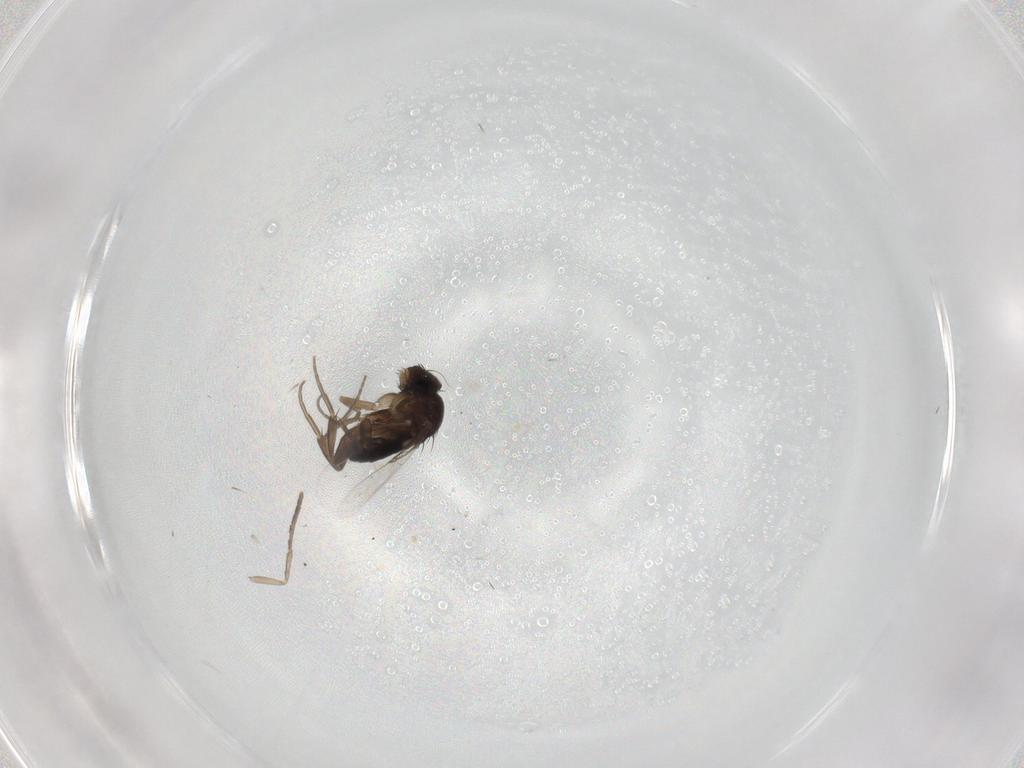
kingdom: Animalia
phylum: Arthropoda
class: Insecta
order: Diptera
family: Phoridae
